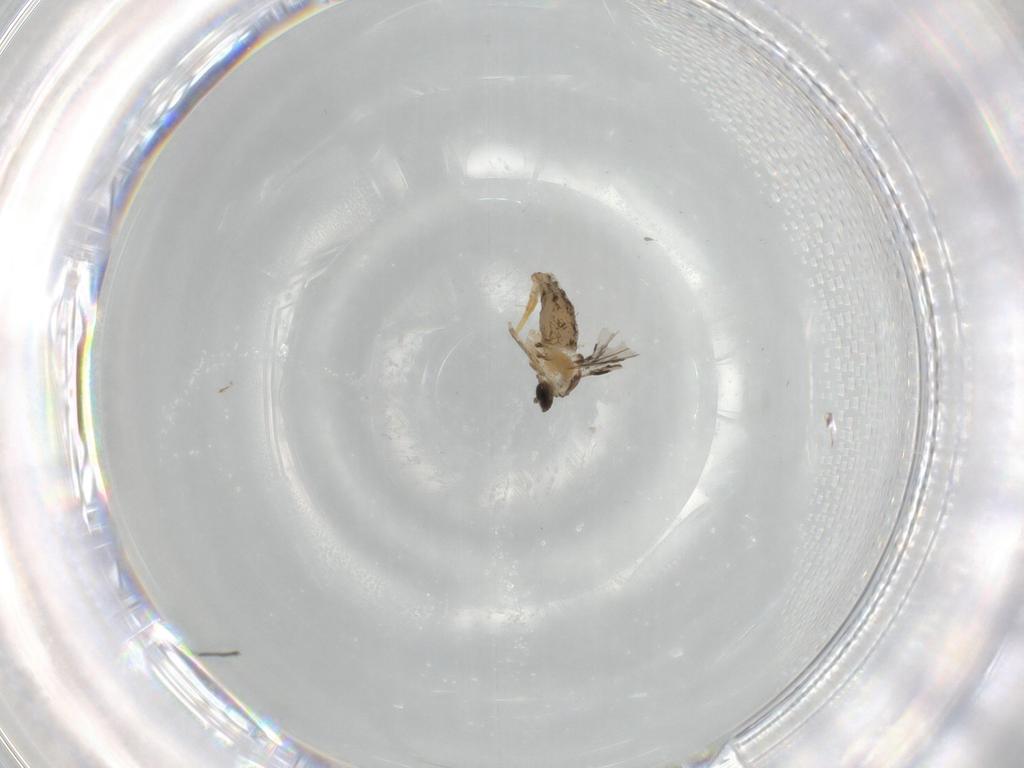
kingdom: Animalia
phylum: Arthropoda
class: Insecta
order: Diptera
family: Cecidomyiidae
